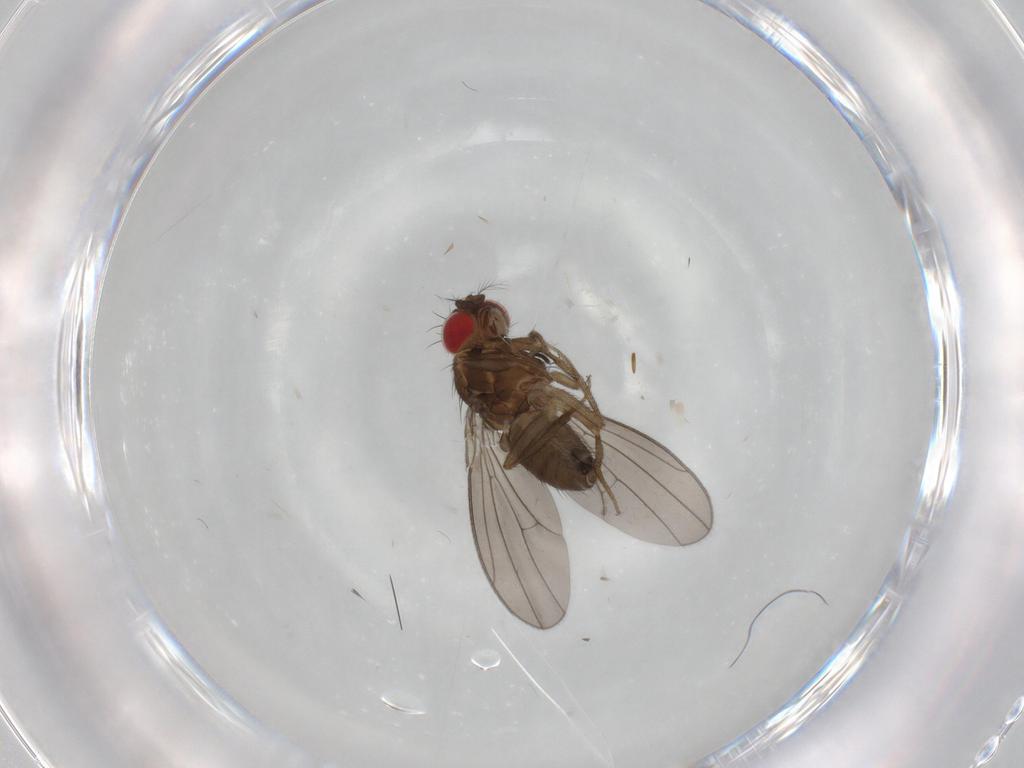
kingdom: Animalia
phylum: Arthropoda
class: Insecta
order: Diptera
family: Drosophilidae
